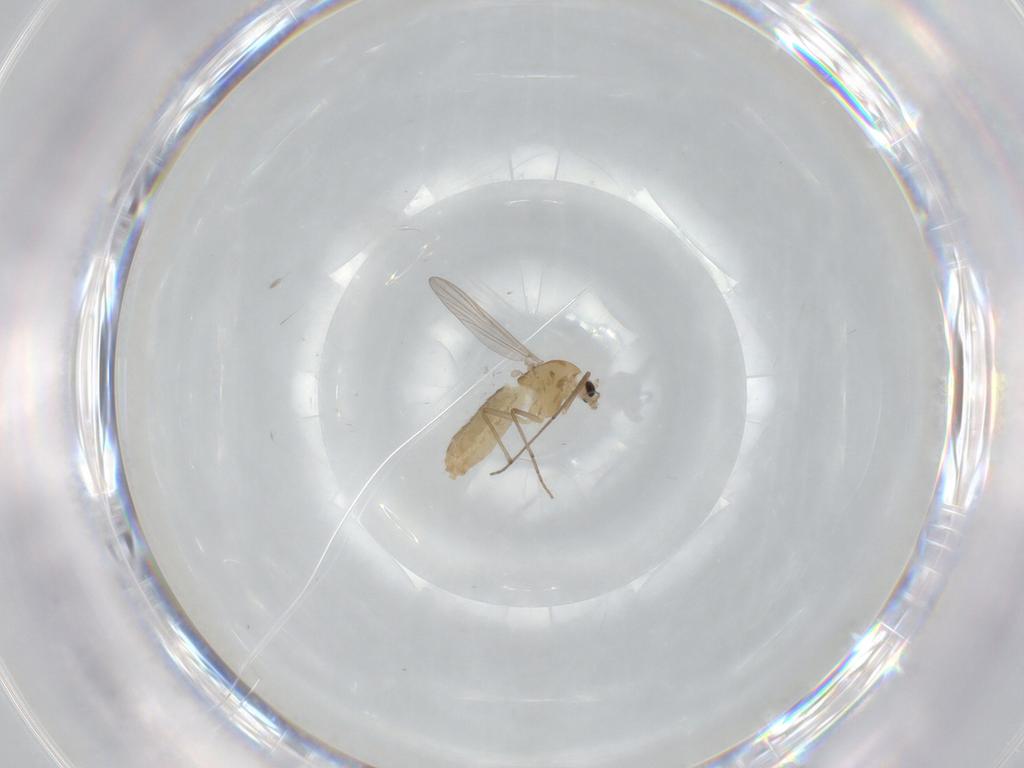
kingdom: Animalia
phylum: Arthropoda
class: Insecta
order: Diptera
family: Chironomidae
